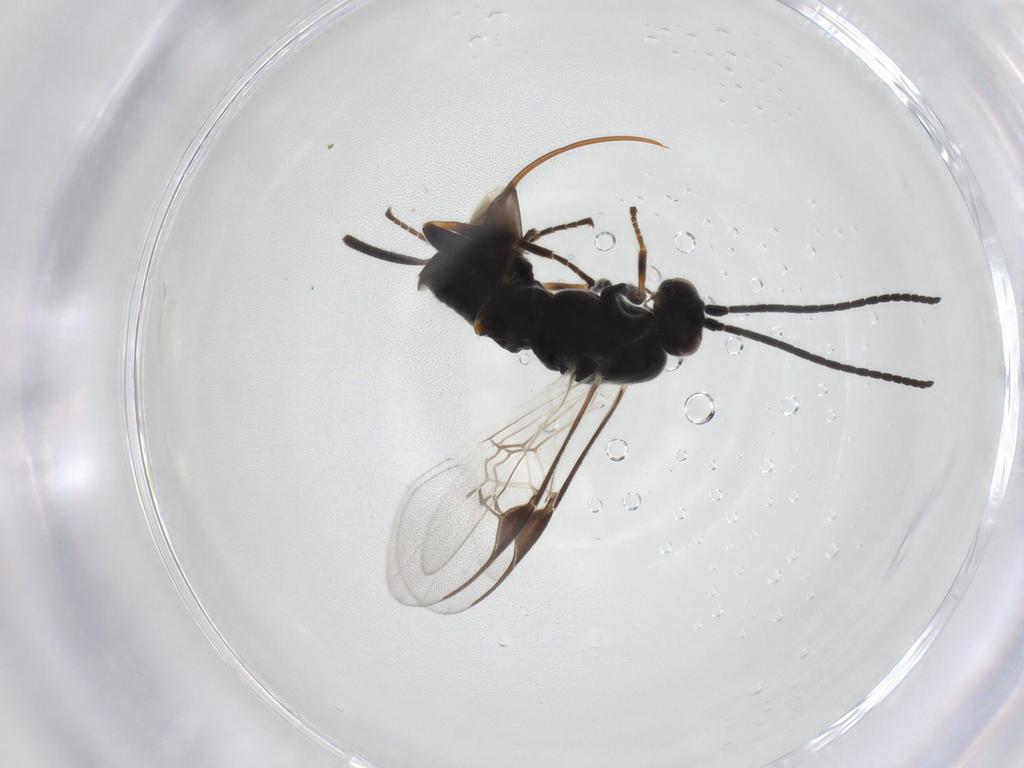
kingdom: Animalia
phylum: Arthropoda
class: Insecta
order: Hymenoptera
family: Braconidae
